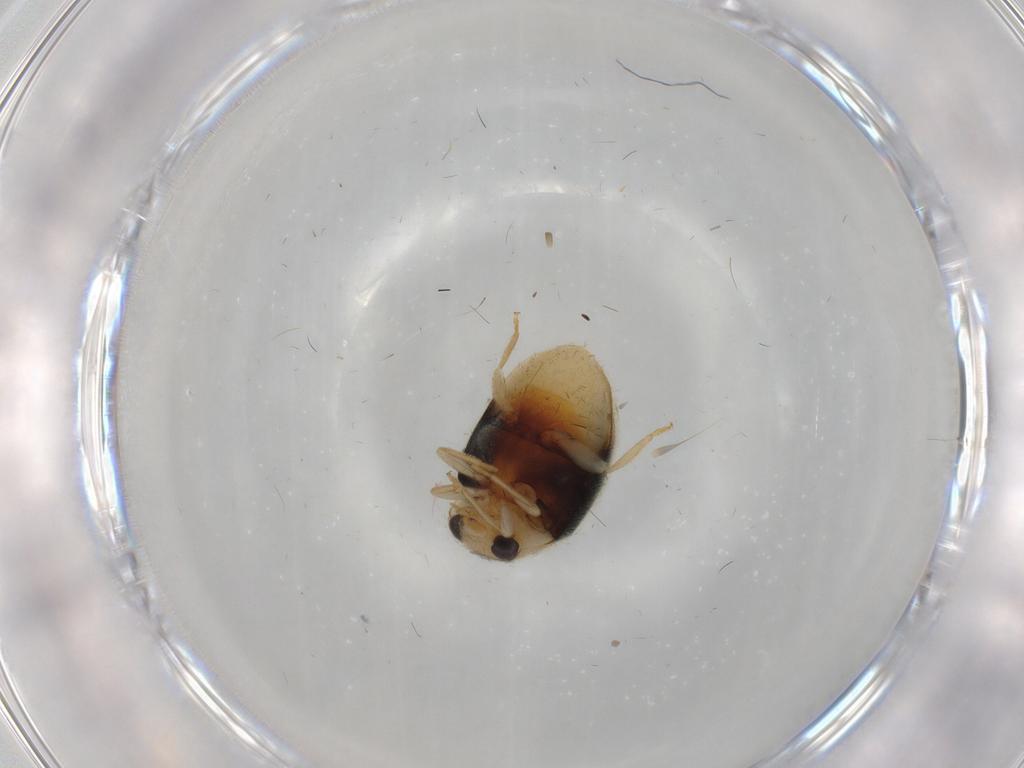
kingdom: Animalia
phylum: Arthropoda
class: Insecta
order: Coleoptera
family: Coccinellidae
